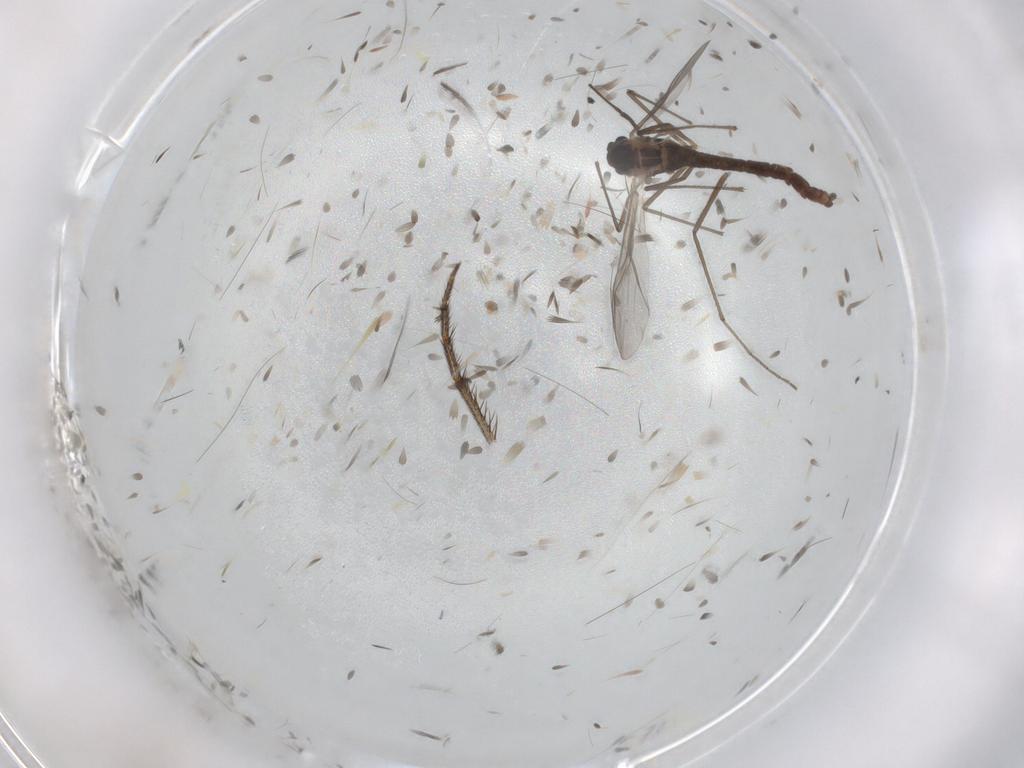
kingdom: Animalia
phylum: Arthropoda
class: Insecta
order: Diptera
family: Chironomidae
